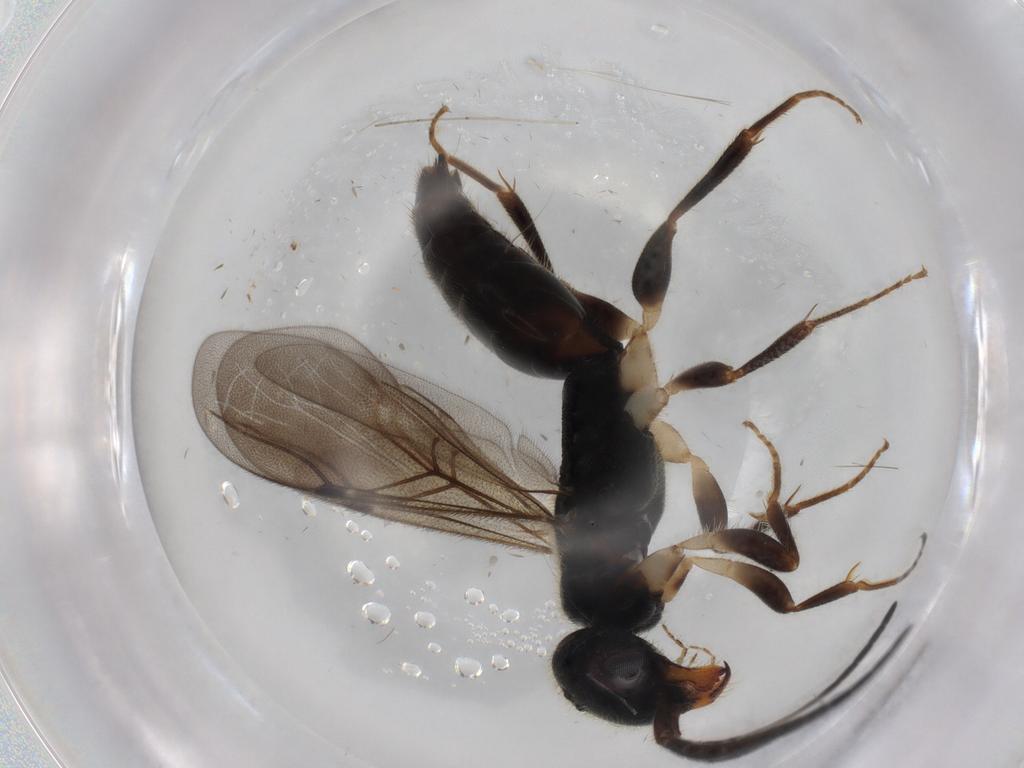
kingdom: Animalia
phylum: Arthropoda
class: Insecta
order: Hymenoptera
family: Bethylidae
